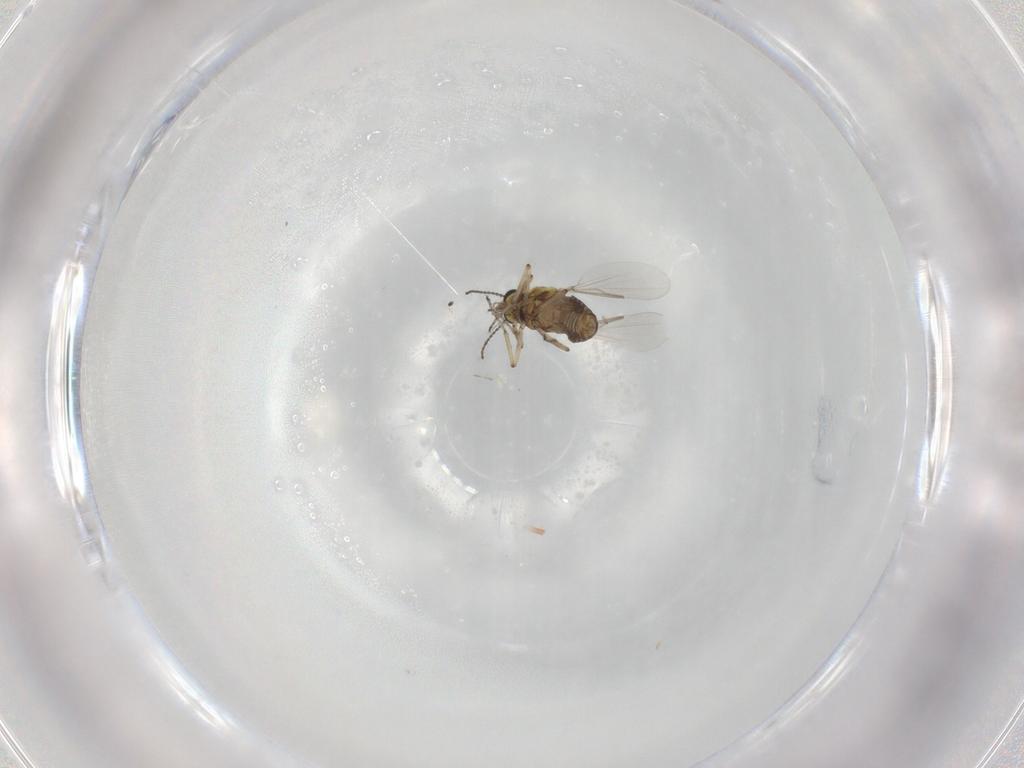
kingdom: Animalia
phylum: Arthropoda
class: Insecta
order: Diptera
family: Ceratopogonidae
